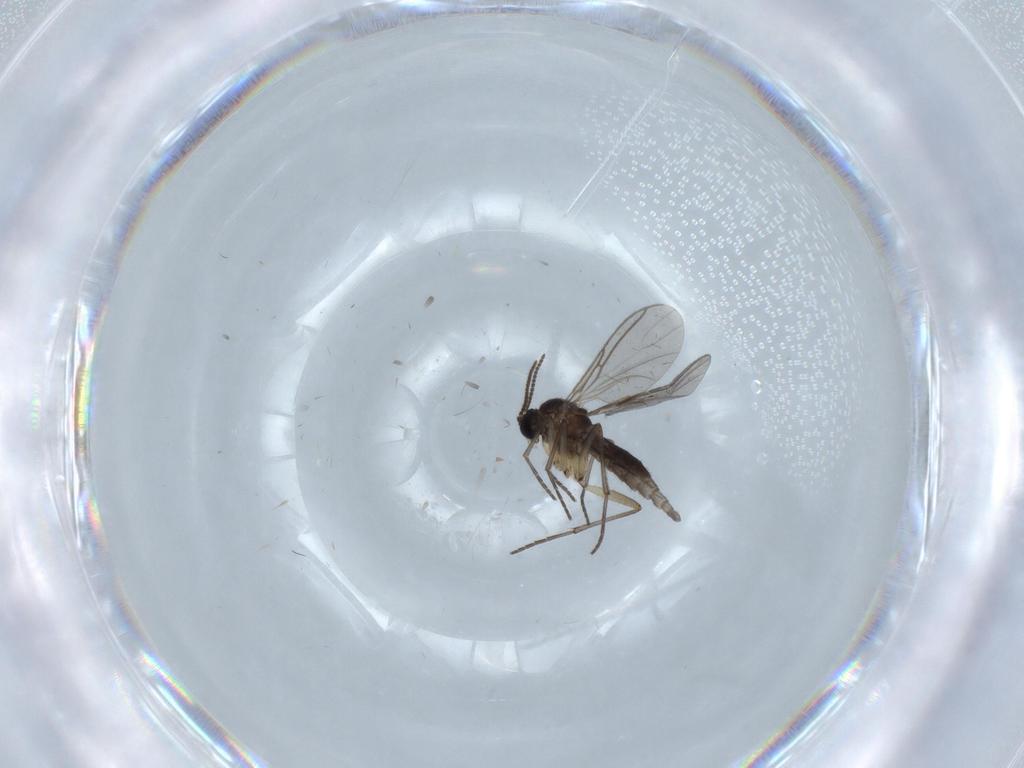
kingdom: Animalia
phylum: Arthropoda
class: Insecta
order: Diptera
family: Sciaridae
